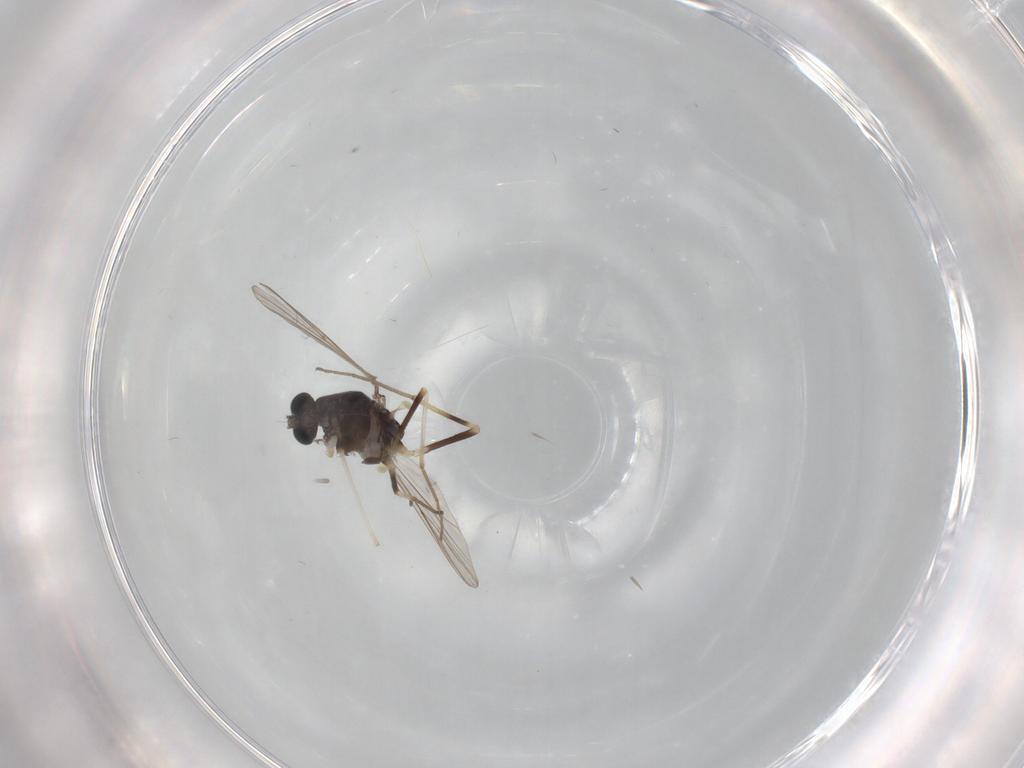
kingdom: Animalia
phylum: Arthropoda
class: Insecta
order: Diptera
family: Chironomidae
